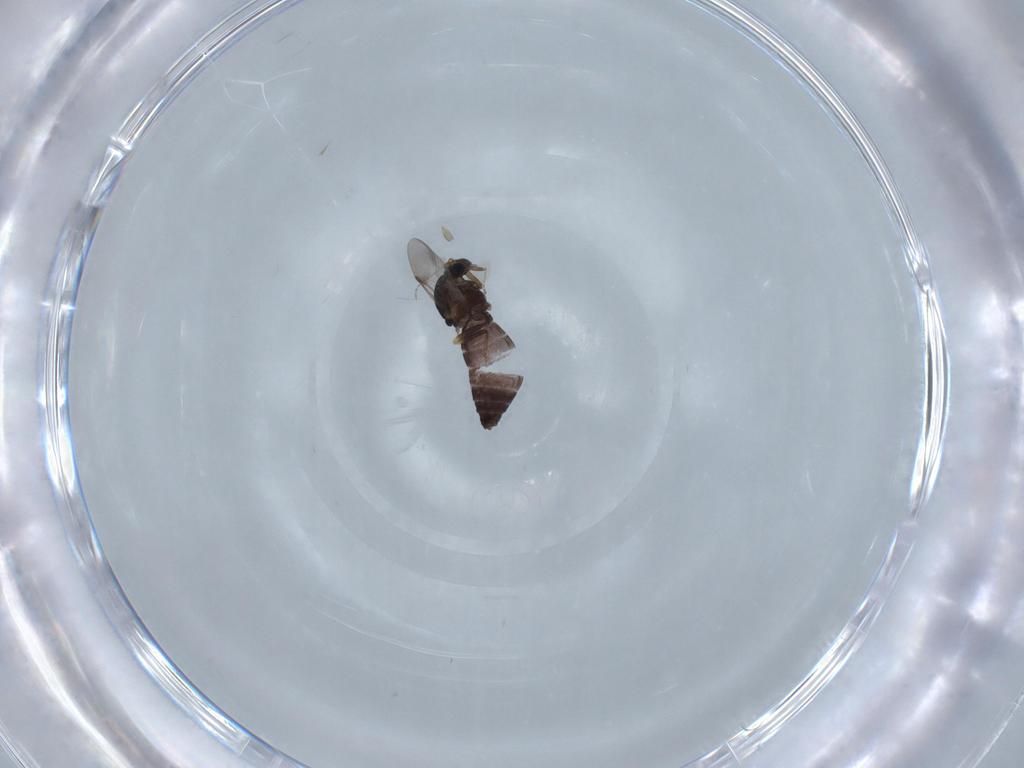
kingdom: Animalia
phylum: Arthropoda
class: Insecta
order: Diptera
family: Ceratopogonidae
